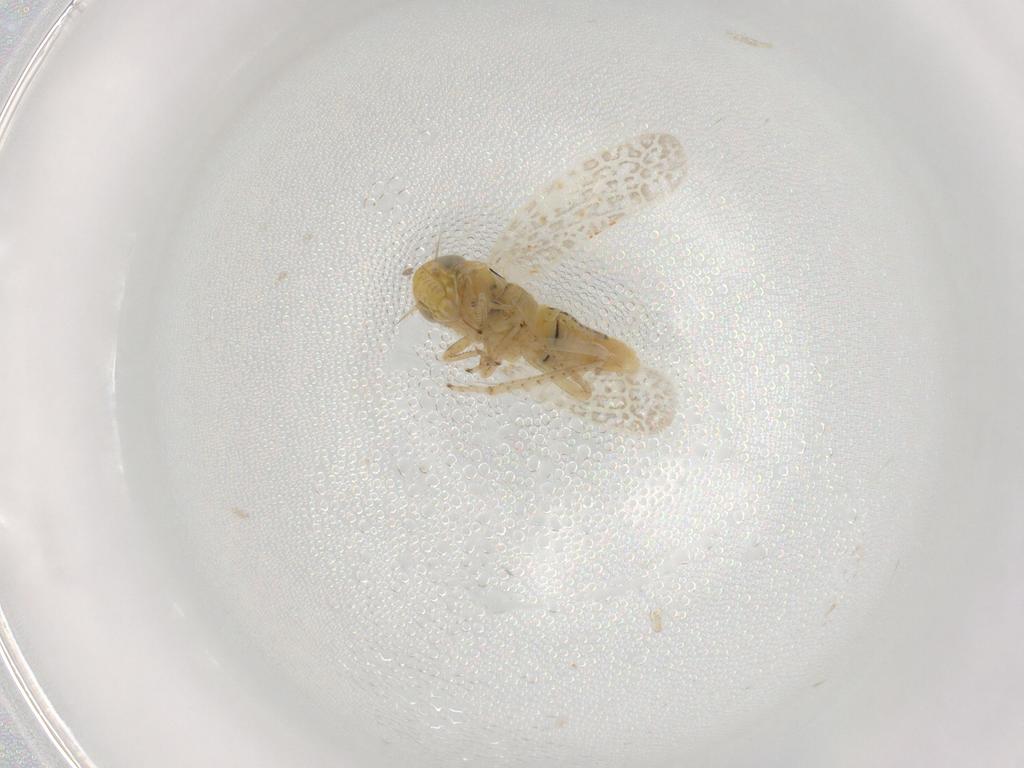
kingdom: Animalia
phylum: Arthropoda
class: Insecta
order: Hemiptera
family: Cicadellidae
